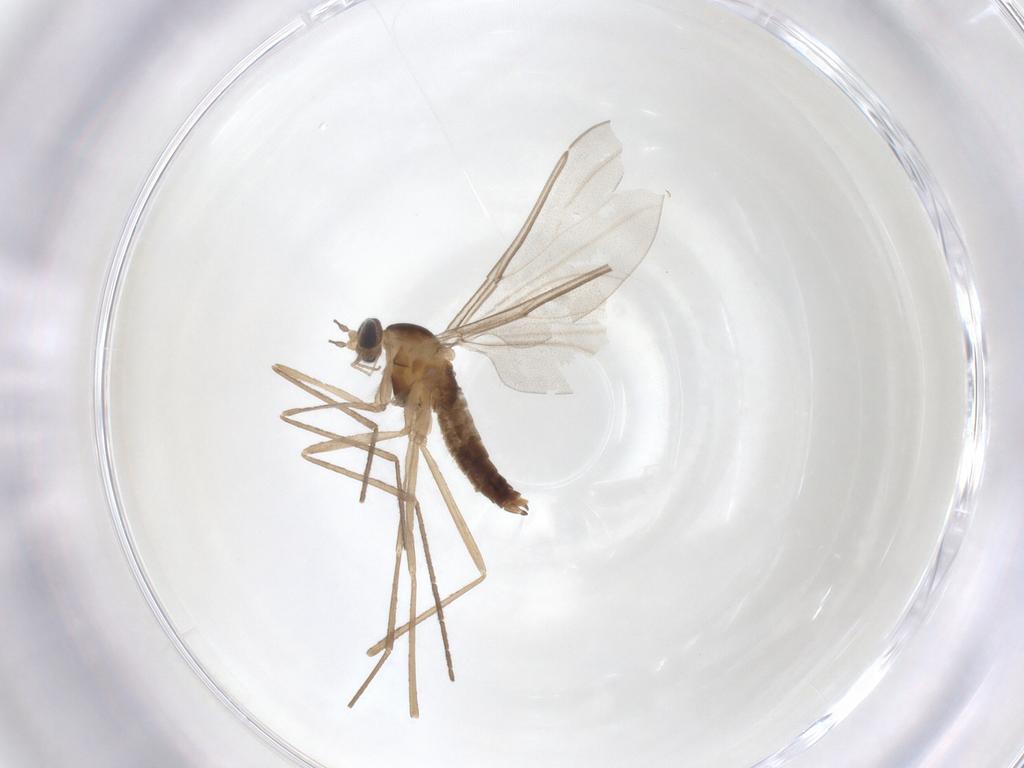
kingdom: Animalia
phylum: Arthropoda
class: Insecta
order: Diptera
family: Cecidomyiidae
